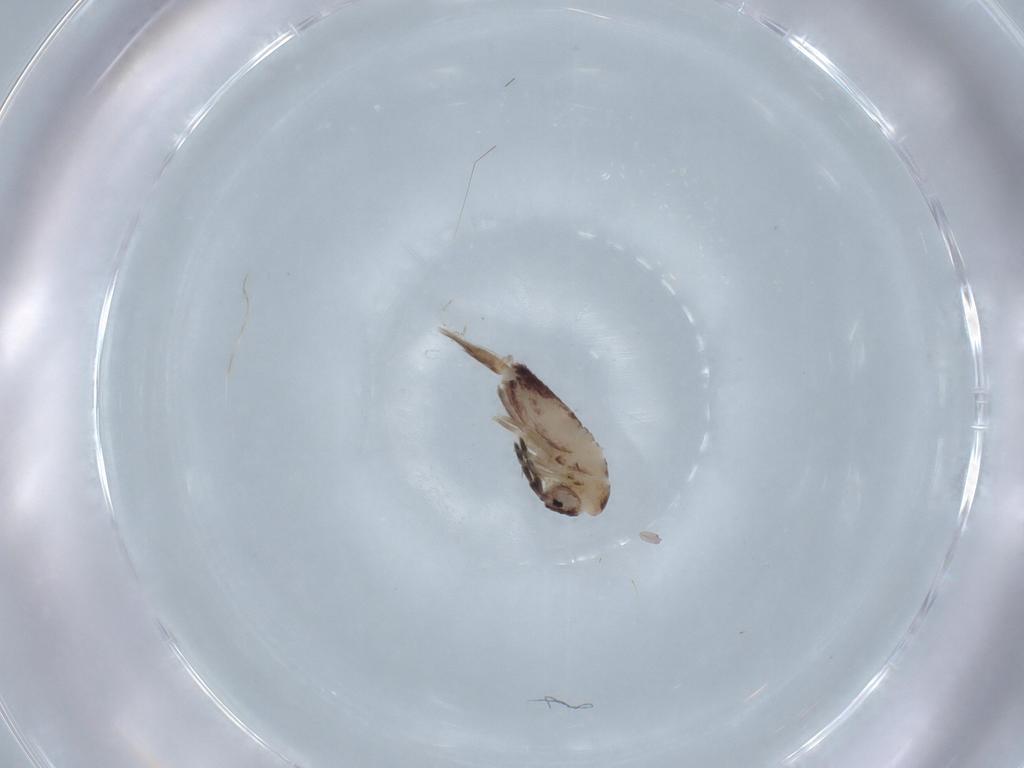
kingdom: Animalia
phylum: Arthropoda
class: Collembola
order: Entomobryomorpha
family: Entomobryidae
